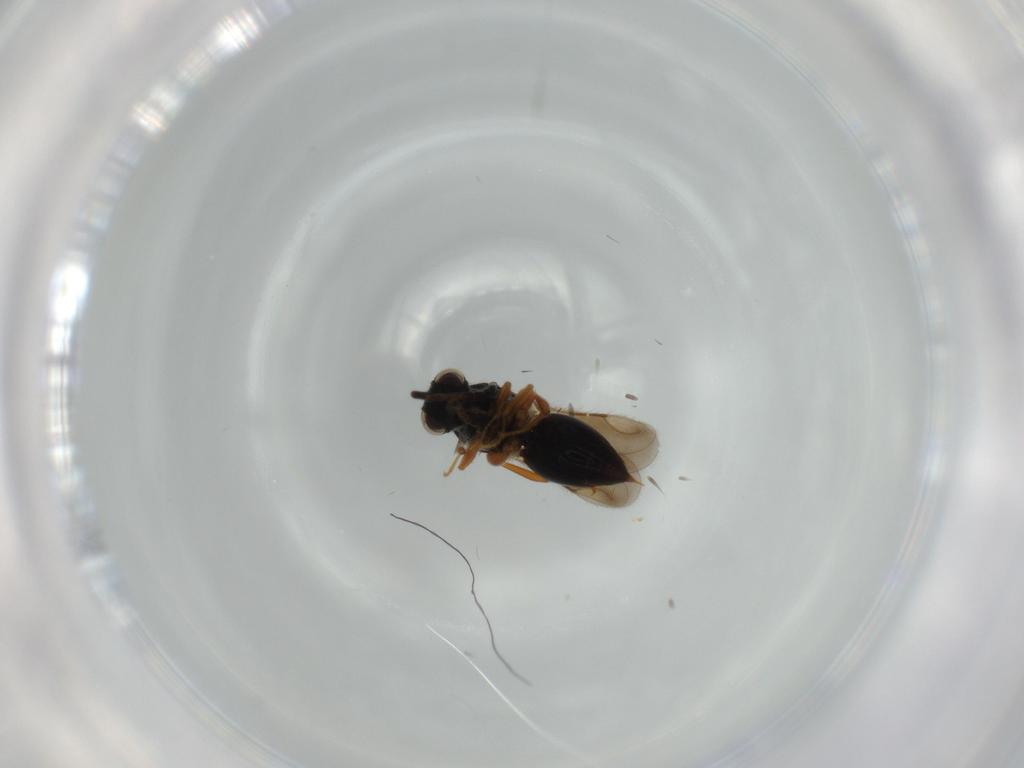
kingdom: Animalia
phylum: Arthropoda
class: Insecta
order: Hymenoptera
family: Pergidae
